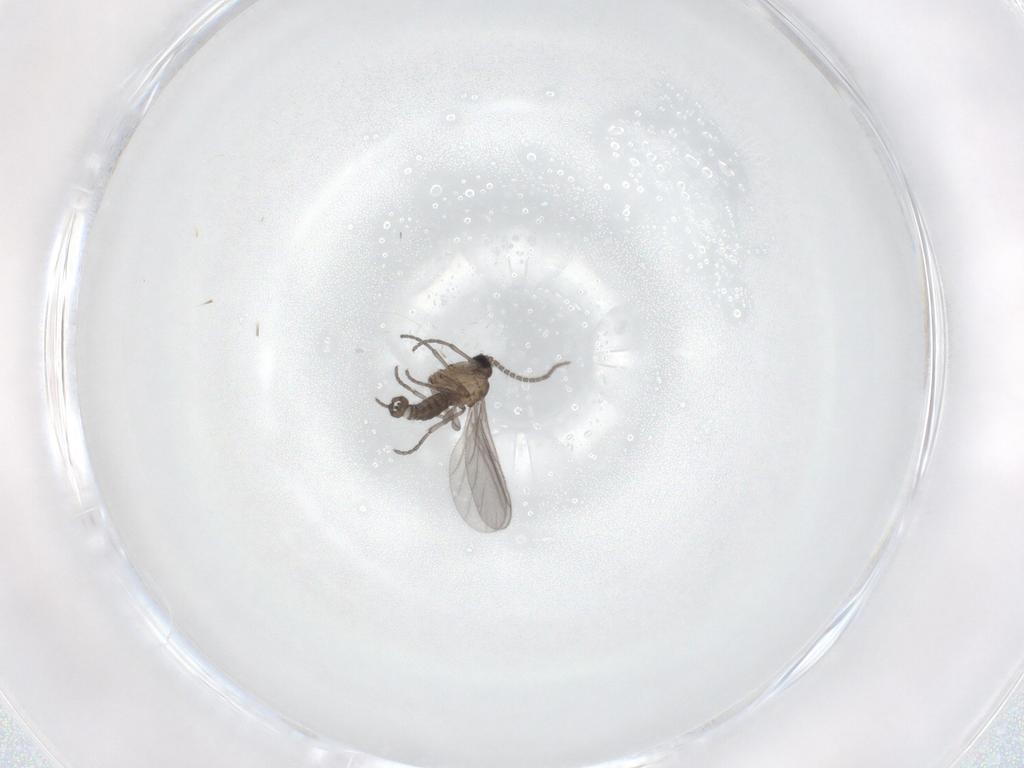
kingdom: Animalia
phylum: Arthropoda
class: Insecta
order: Diptera
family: Sciaridae
